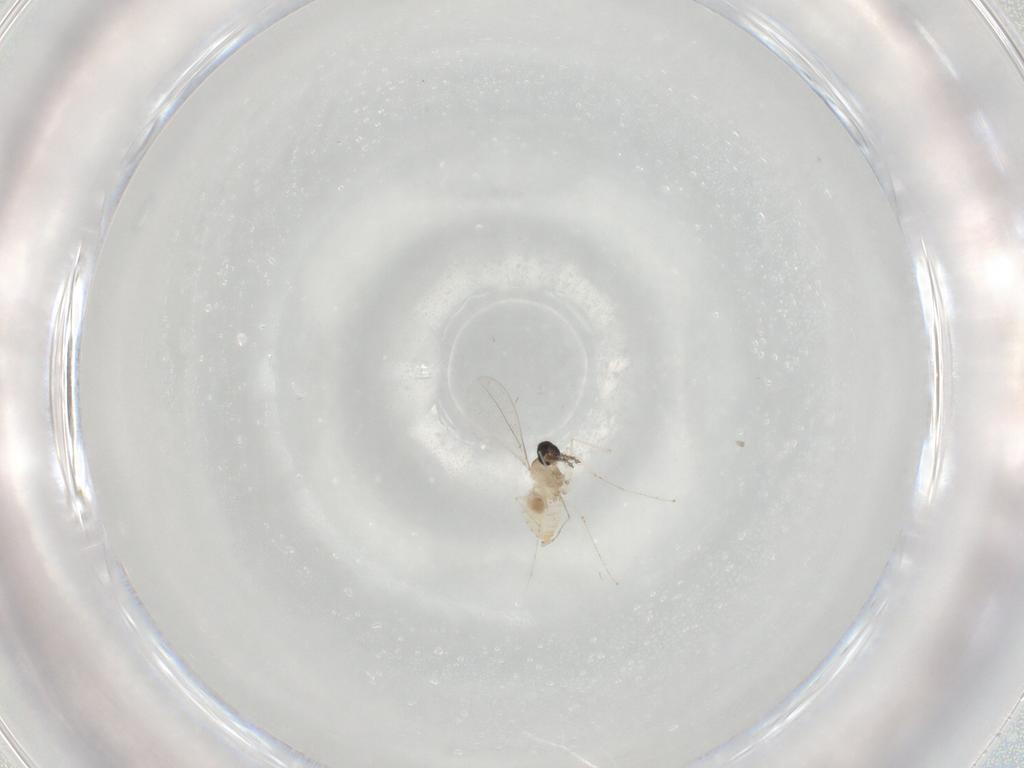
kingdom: Animalia
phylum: Arthropoda
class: Insecta
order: Diptera
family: Cecidomyiidae
